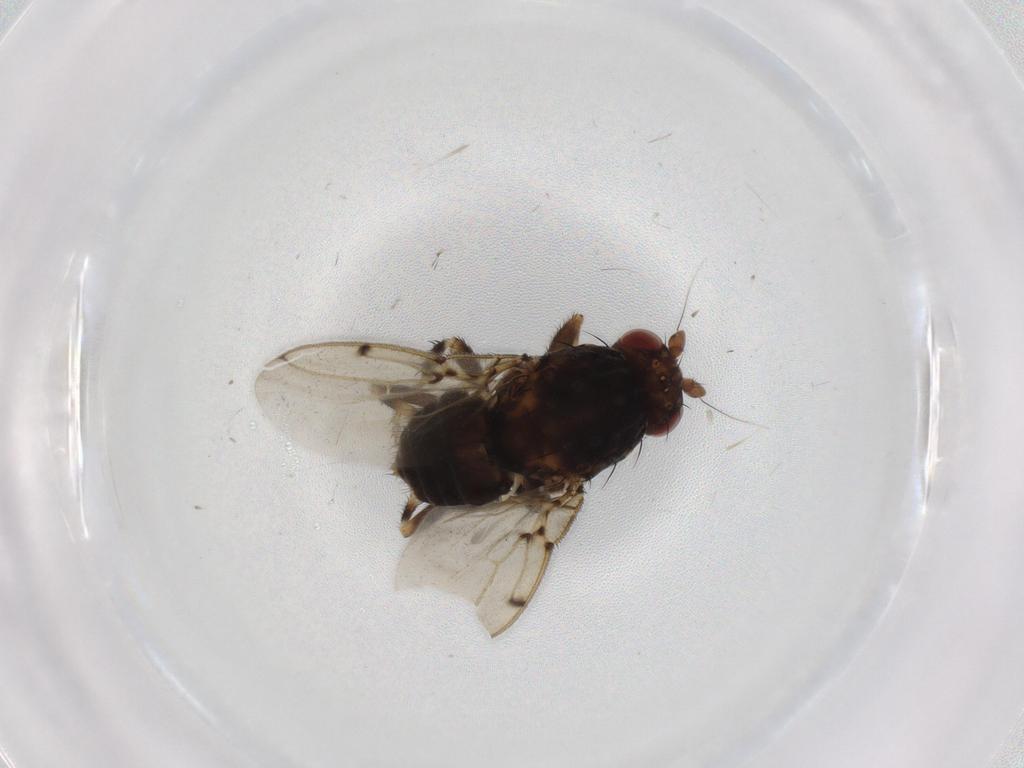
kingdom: Animalia
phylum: Arthropoda
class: Insecta
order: Diptera
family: Sphaeroceridae
